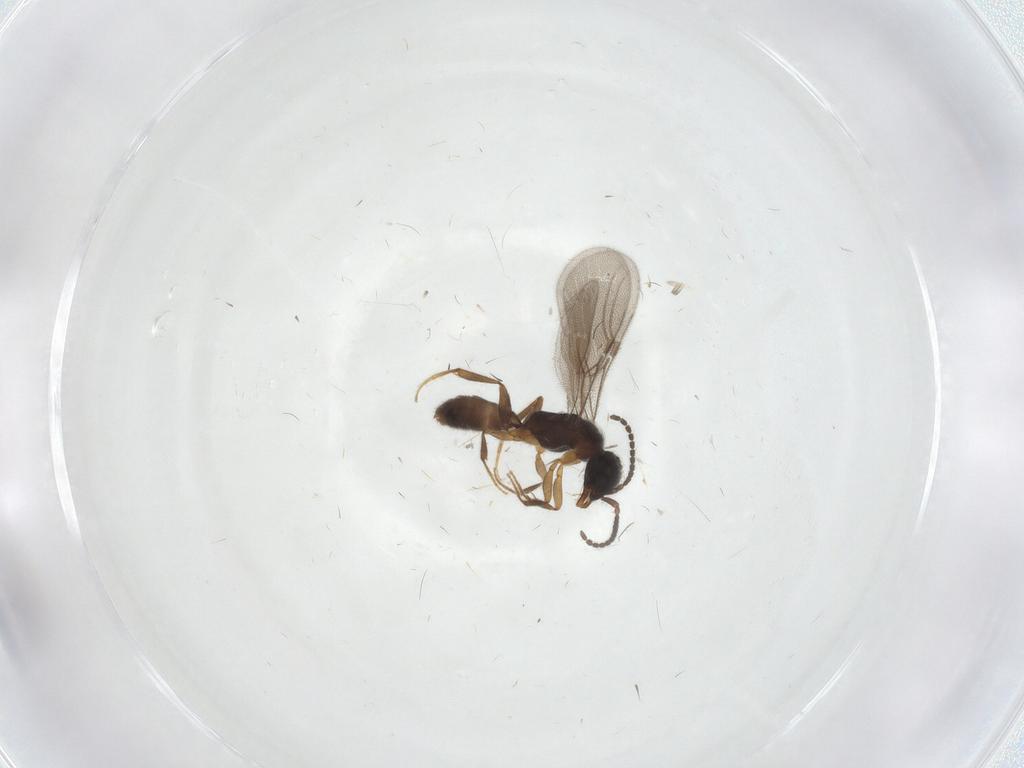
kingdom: Animalia
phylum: Arthropoda
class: Insecta
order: Hymenoptera
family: Bethylidae
